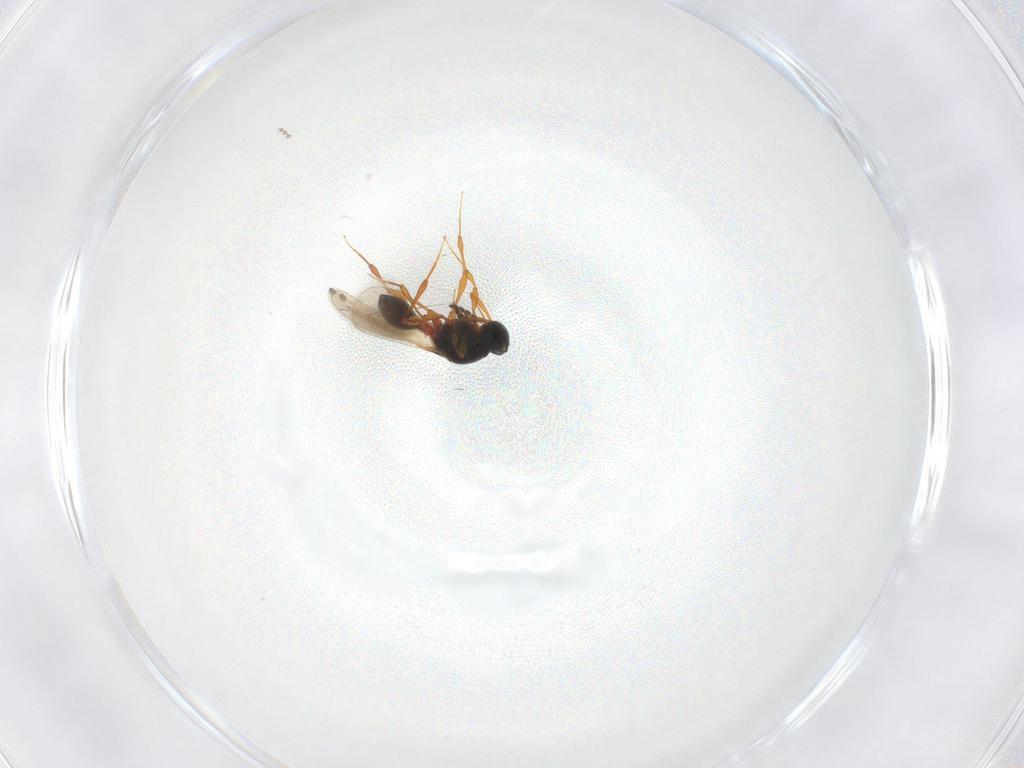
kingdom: Animalia
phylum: Arthropoda
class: Insecta
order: Hymenoptera
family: Platygastridae
